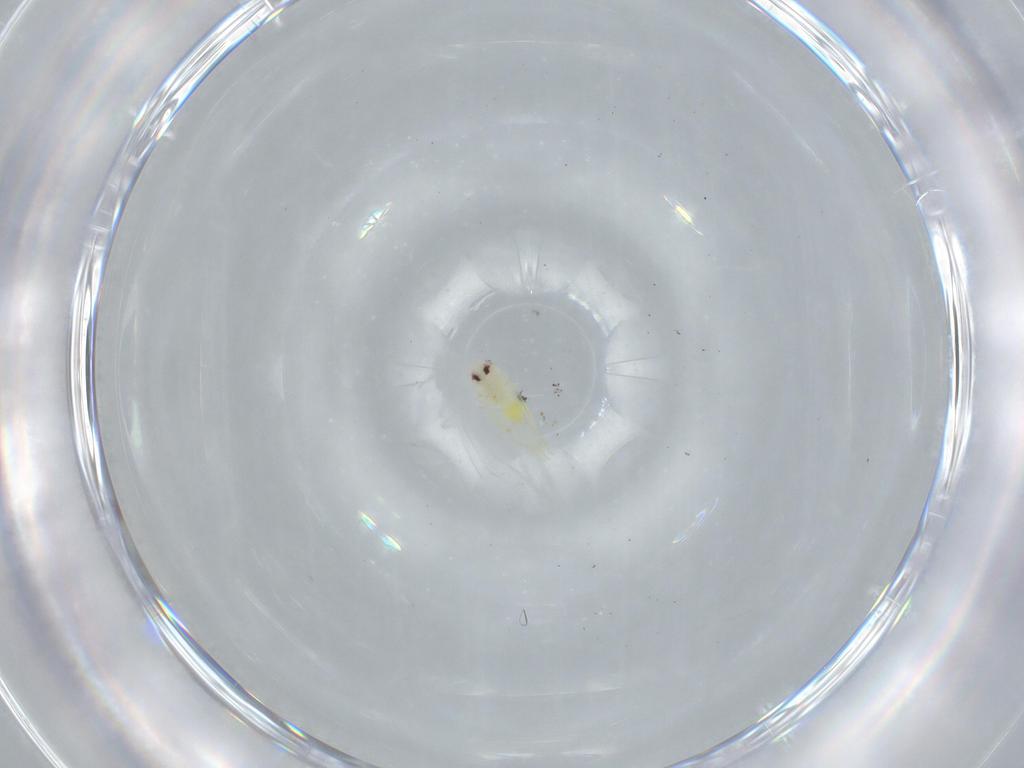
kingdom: Animalia
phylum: Arthropoda
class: Insecta
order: Hemiptera
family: Aleyrodidae
